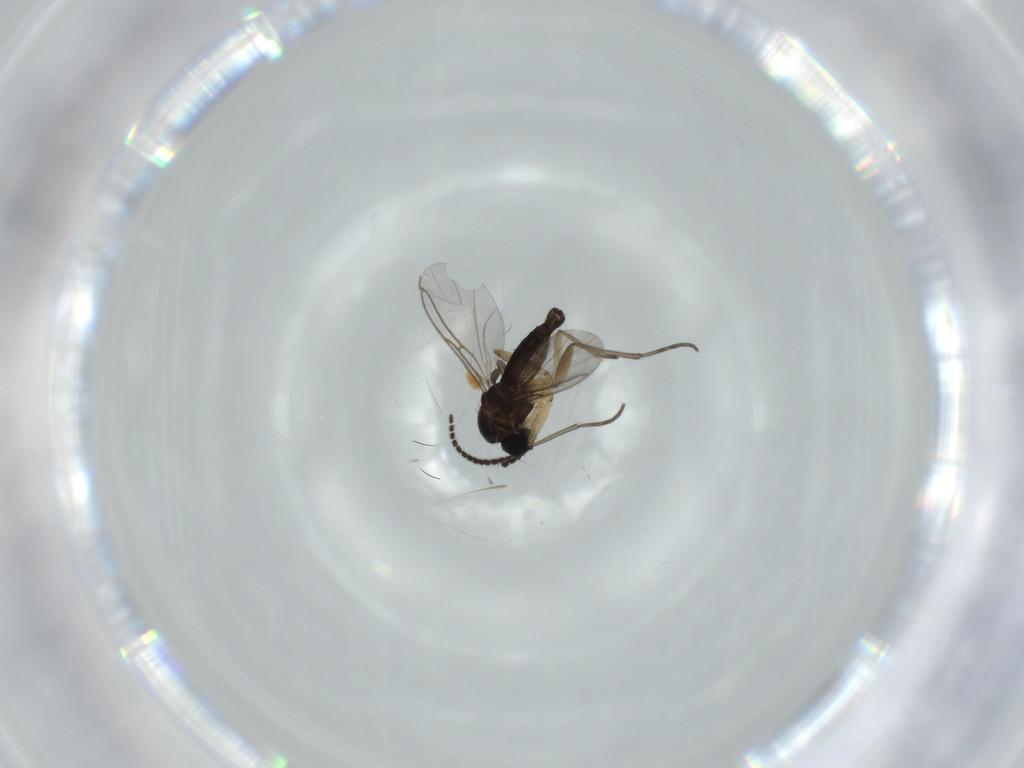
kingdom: Animalia
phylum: Arthropoda
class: Insecta
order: Diptera
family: Sciaridae
